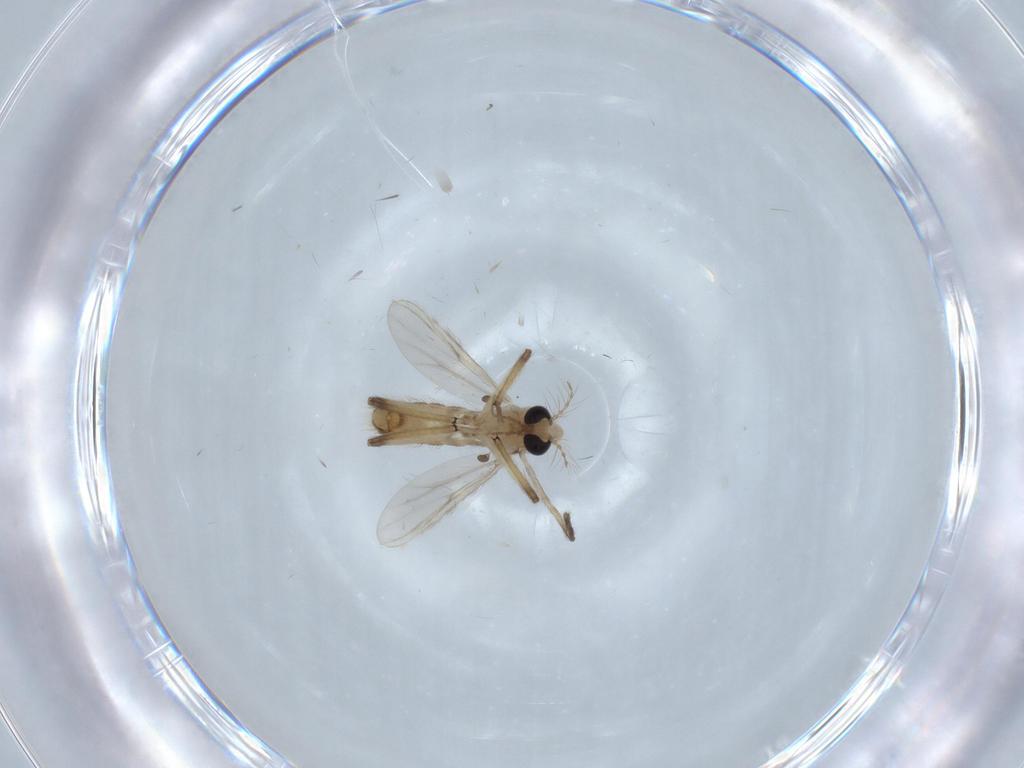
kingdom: Animalia
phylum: Arthropoda
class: Insecta
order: Diptera
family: Chironomidae
